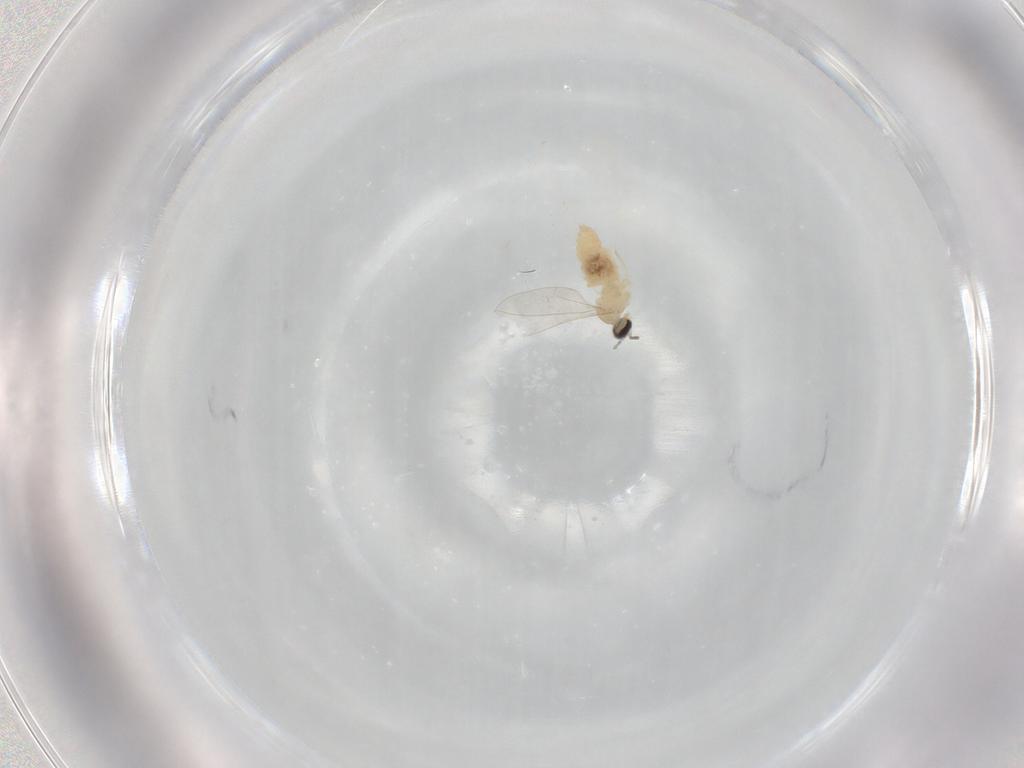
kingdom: Animalia
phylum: Arthropoda
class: Insecta
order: Diptera
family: Cecidomyiidae
